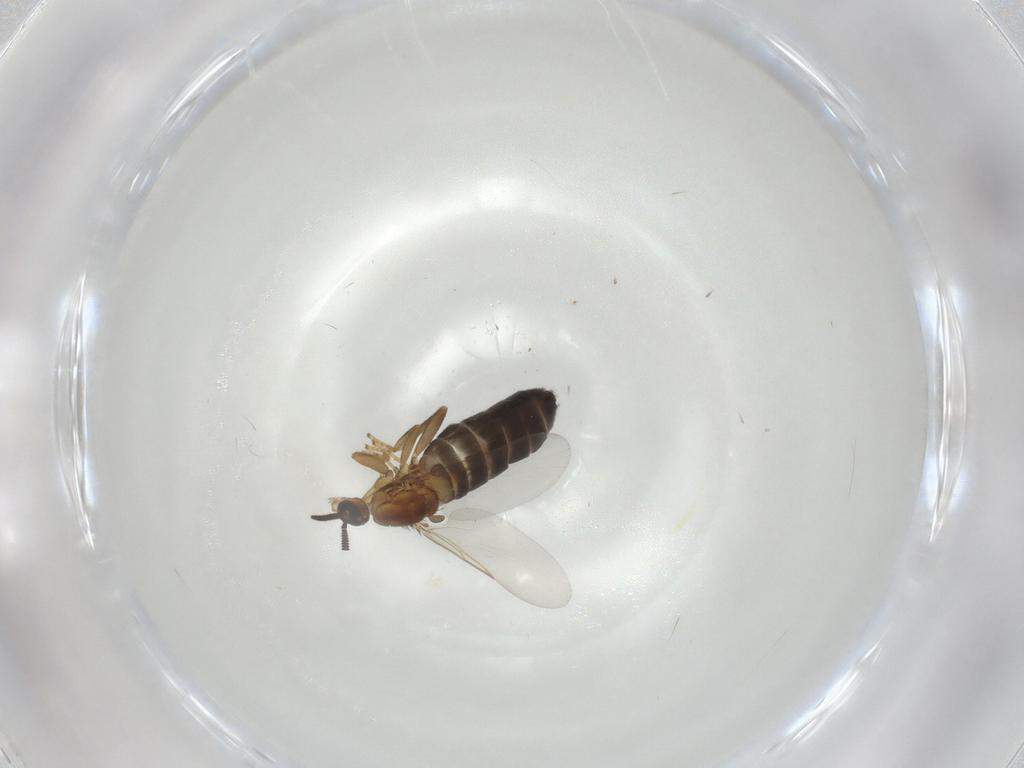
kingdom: Animalia
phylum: Arthropoda
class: Insecta
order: Diptera
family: Scatopsidae
